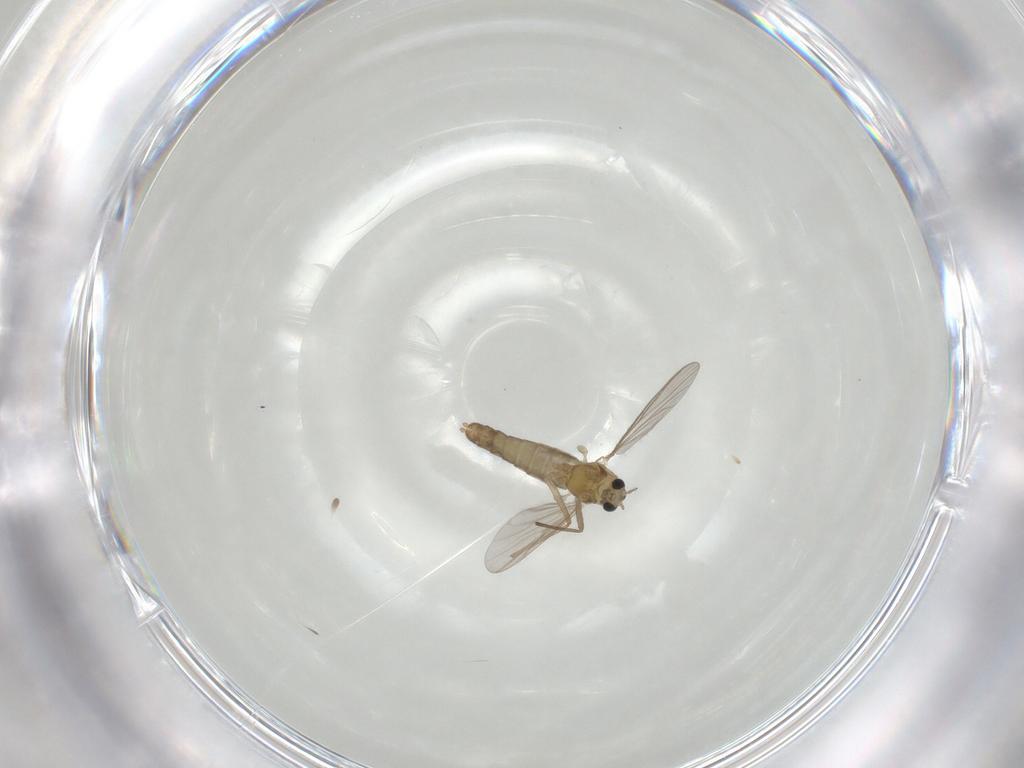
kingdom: Animalia
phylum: Arthropoda
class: Insecta
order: Diptera
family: Chironomidae
